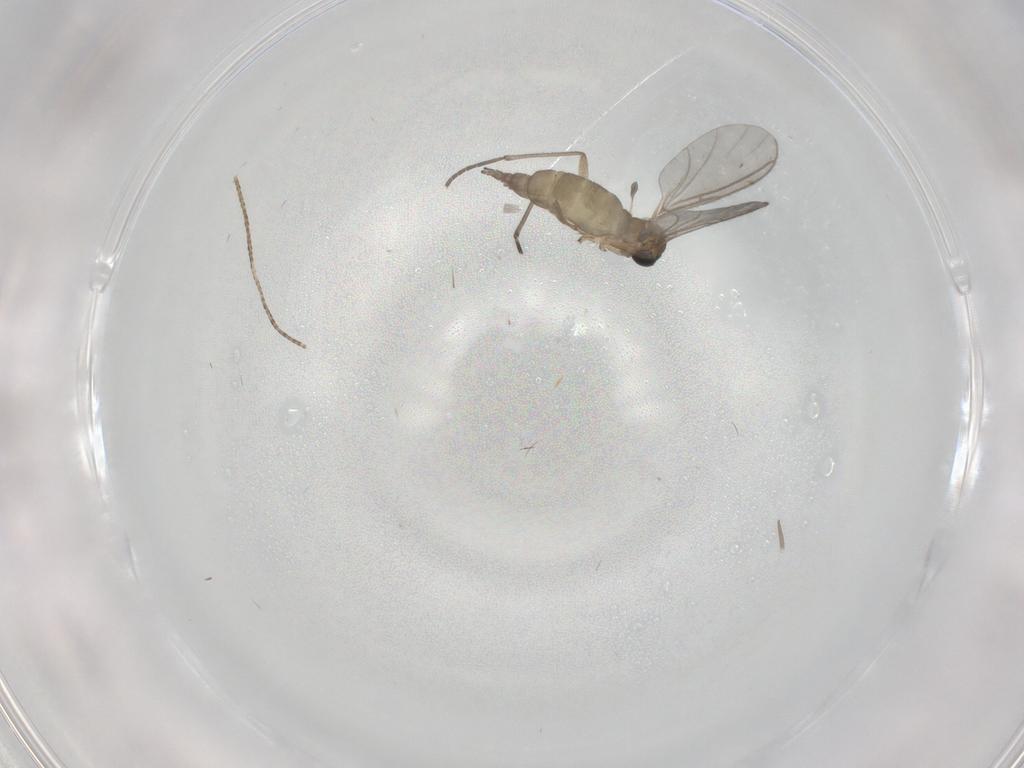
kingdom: Animalia
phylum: Arthropoda
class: Insecta
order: Diptera
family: Sciaridae
